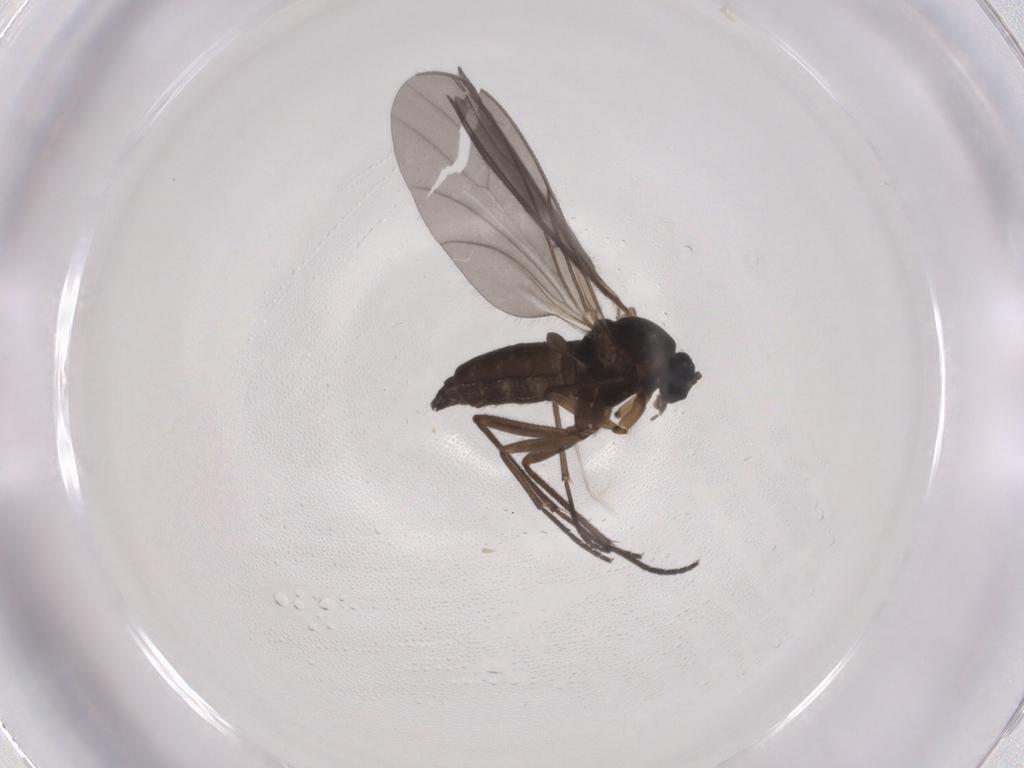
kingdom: Animalia
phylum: Arthropoda
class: Insecta
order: Diptera
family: Sciaridae
